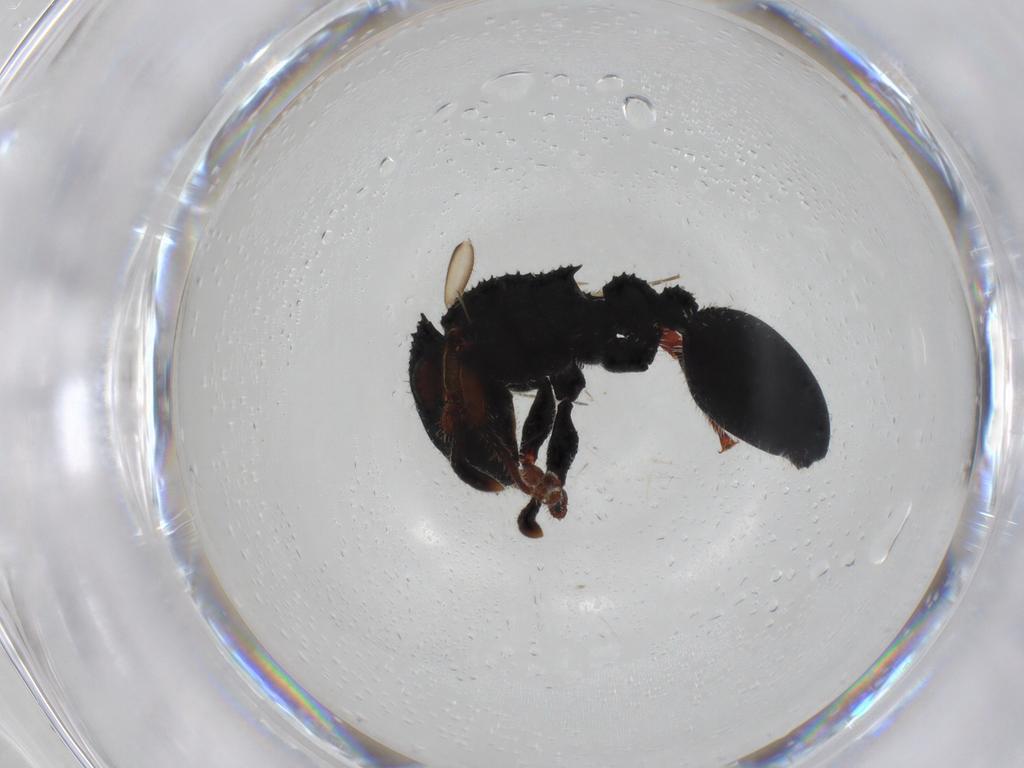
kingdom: Animalia
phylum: Arthropoda
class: Insecta
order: Hymenoptera
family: Formicidae
